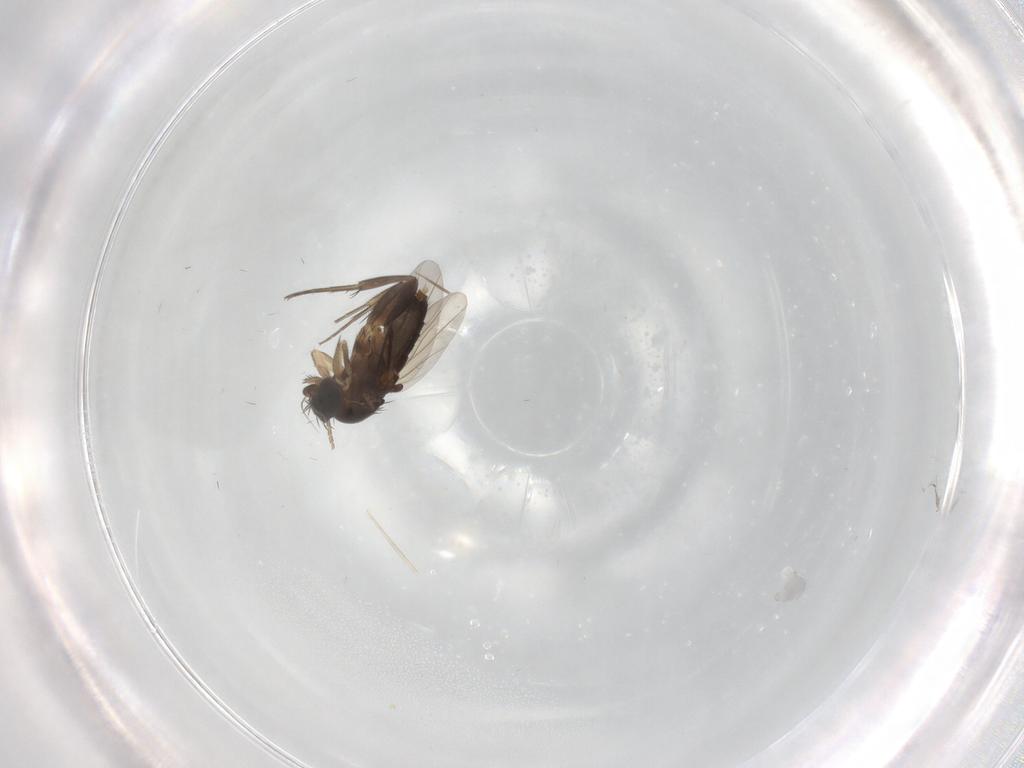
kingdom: Animalia
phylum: Arthropoda
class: Insecta
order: Diptera
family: Phoridae
